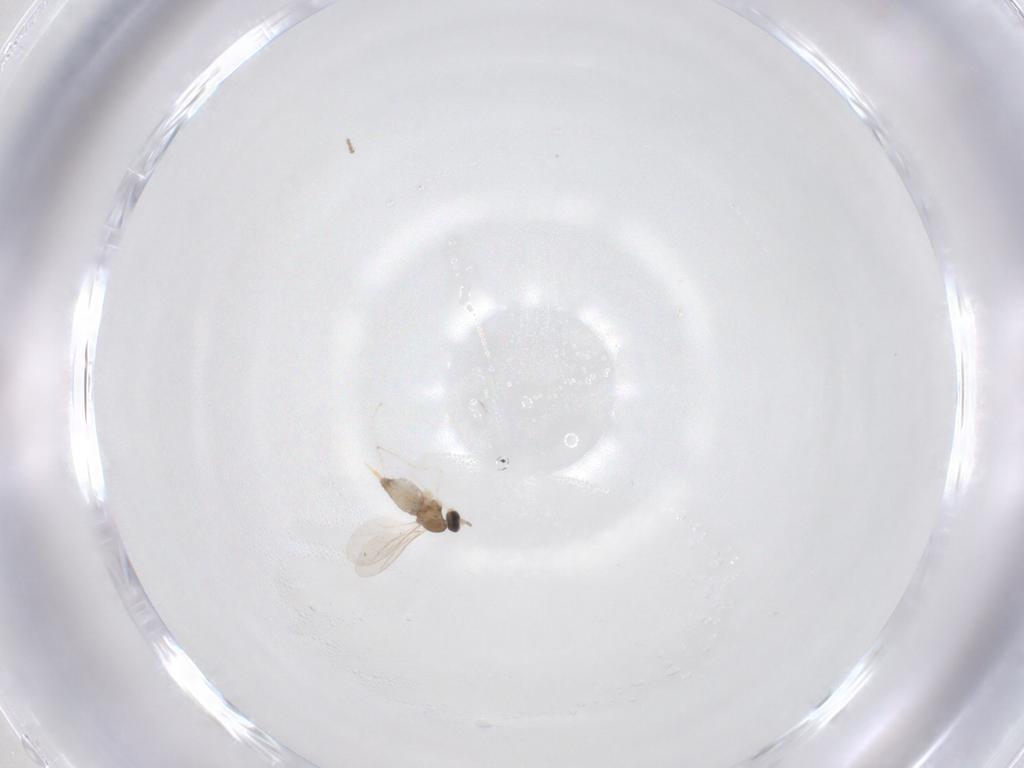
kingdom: Animalia
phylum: Arthropoda
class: Insecta
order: Diptera
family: Cecidomyiidae
